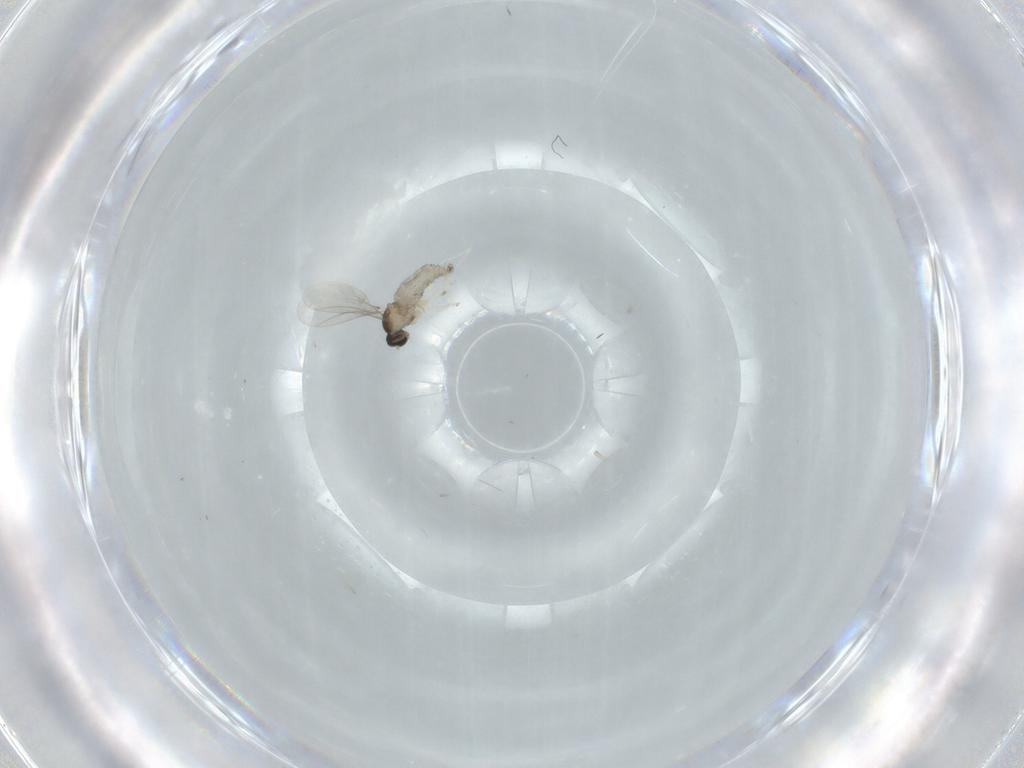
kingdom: Animalia
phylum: Arthropoda
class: Insecta
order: Diptera
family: Cecidomyiidae
